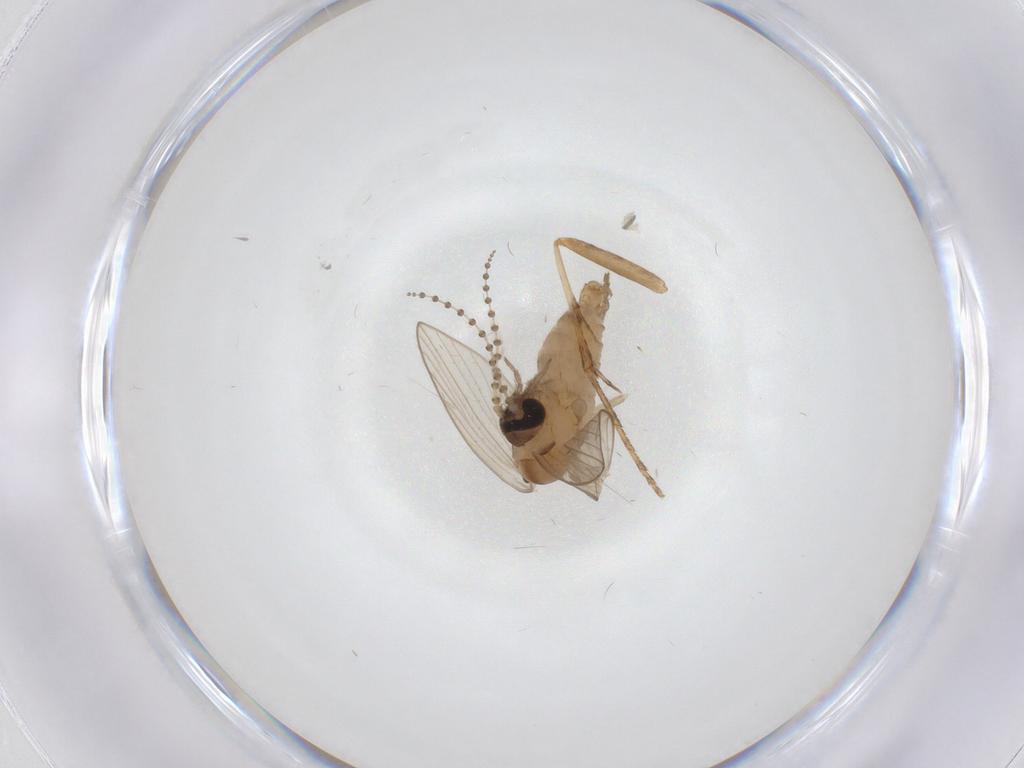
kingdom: Animalia
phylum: Arthropoda
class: Insecta
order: Diptera
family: Psychodidae
